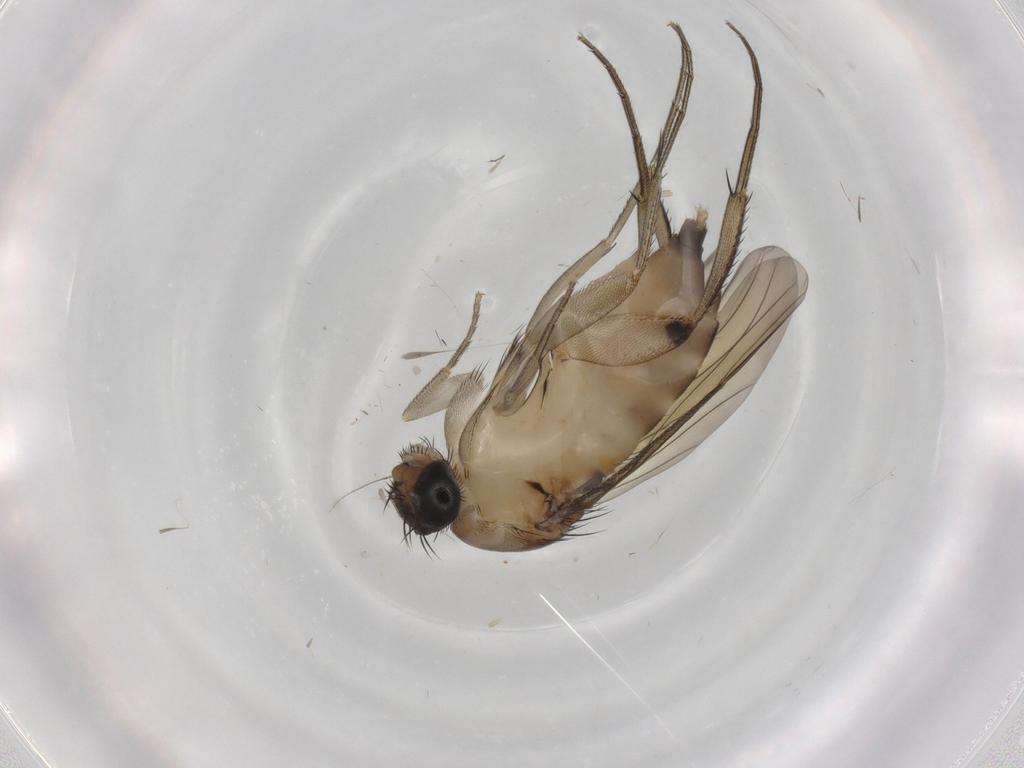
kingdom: Animalia
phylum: Arthropoda
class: Insecta
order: Diptera
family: Phoridae
